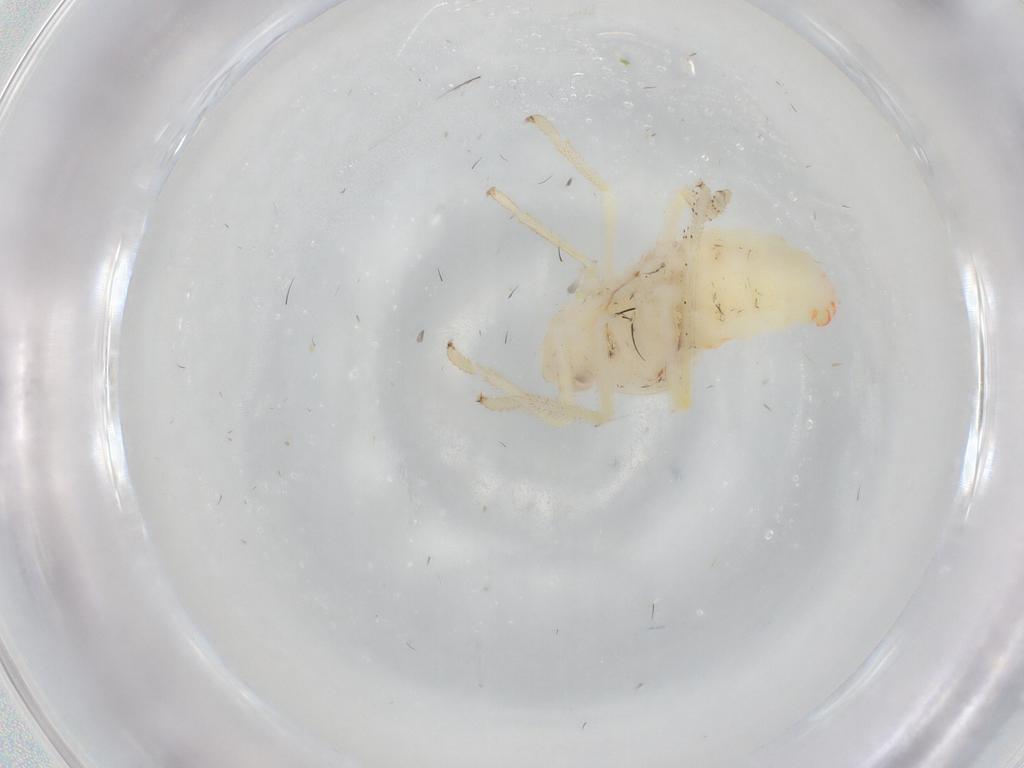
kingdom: Animalia
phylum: Arthropoda
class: Insecta
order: Hemiptera
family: Tropiduchidae
